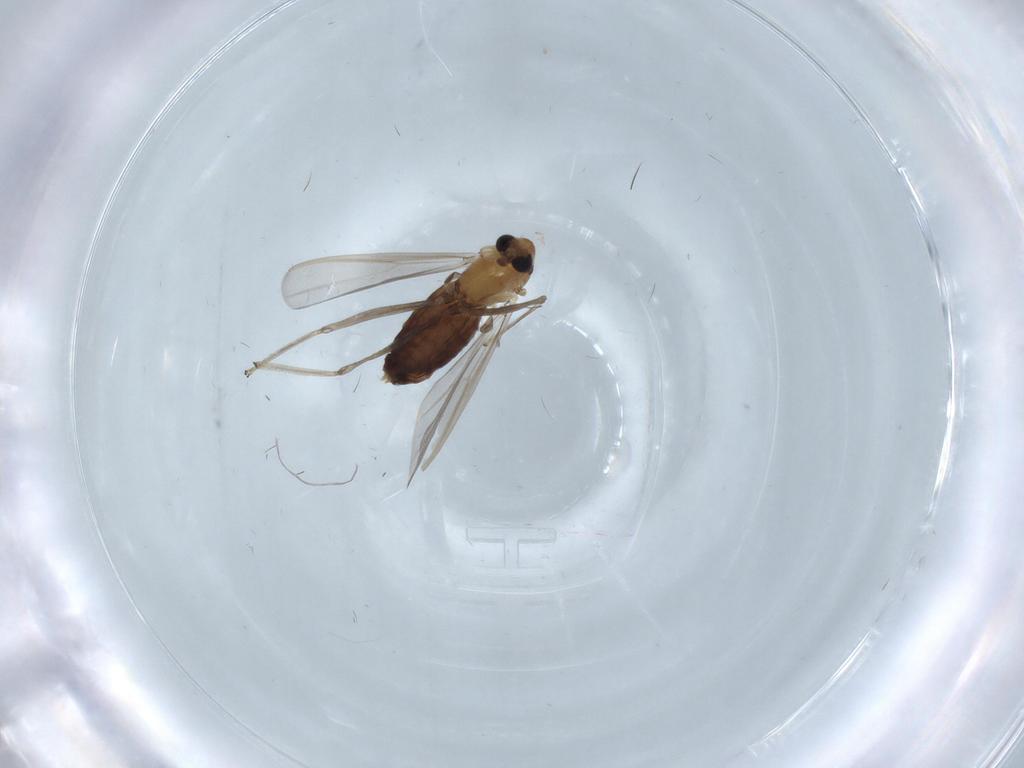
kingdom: Animalia
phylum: Arthropoda
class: Insecta
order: Diptera
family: Chironomidae
